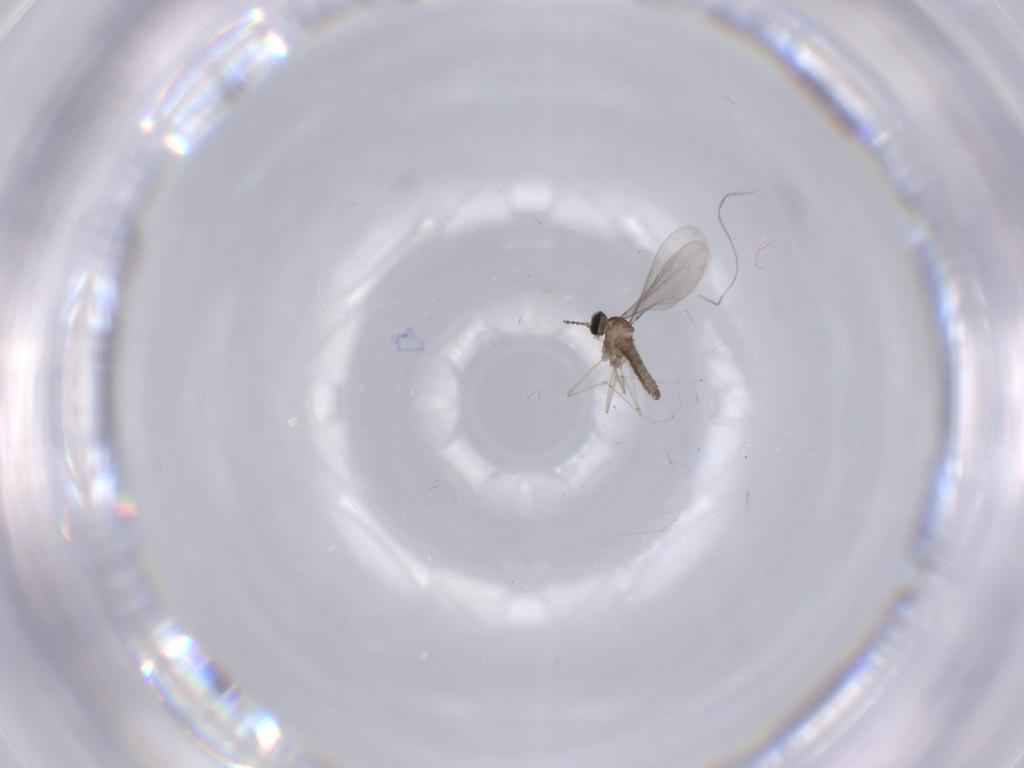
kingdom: Animalia
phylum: Arthropoda
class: Insecta
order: Diptera
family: Cecidomyiidae
